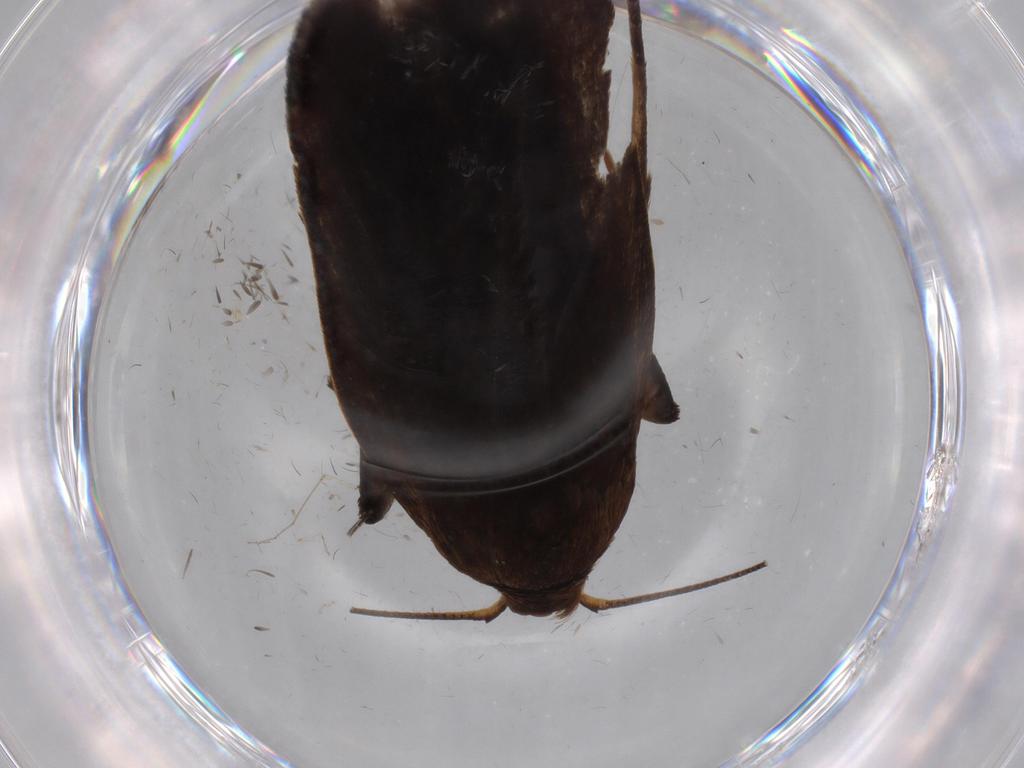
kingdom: Animalia
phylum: Arthropoda
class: Insecta
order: Lepidoptera
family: Gelechiidae
